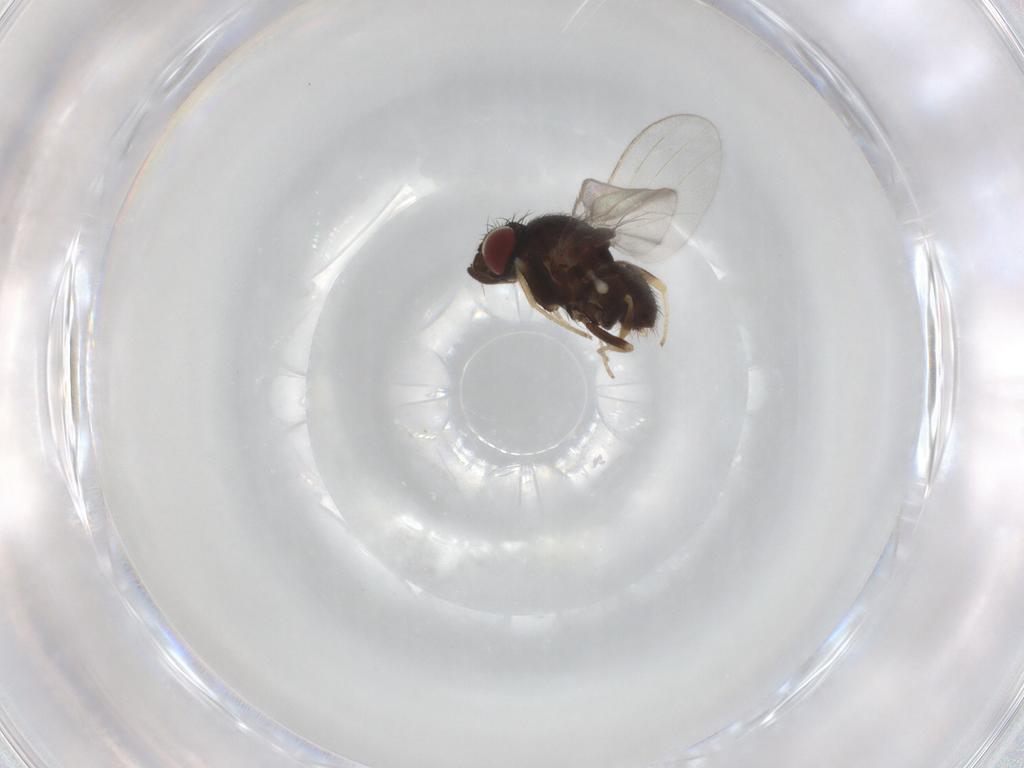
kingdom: Animalia
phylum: Arthropoda
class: Insecta
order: Diptera
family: Milichiidae
